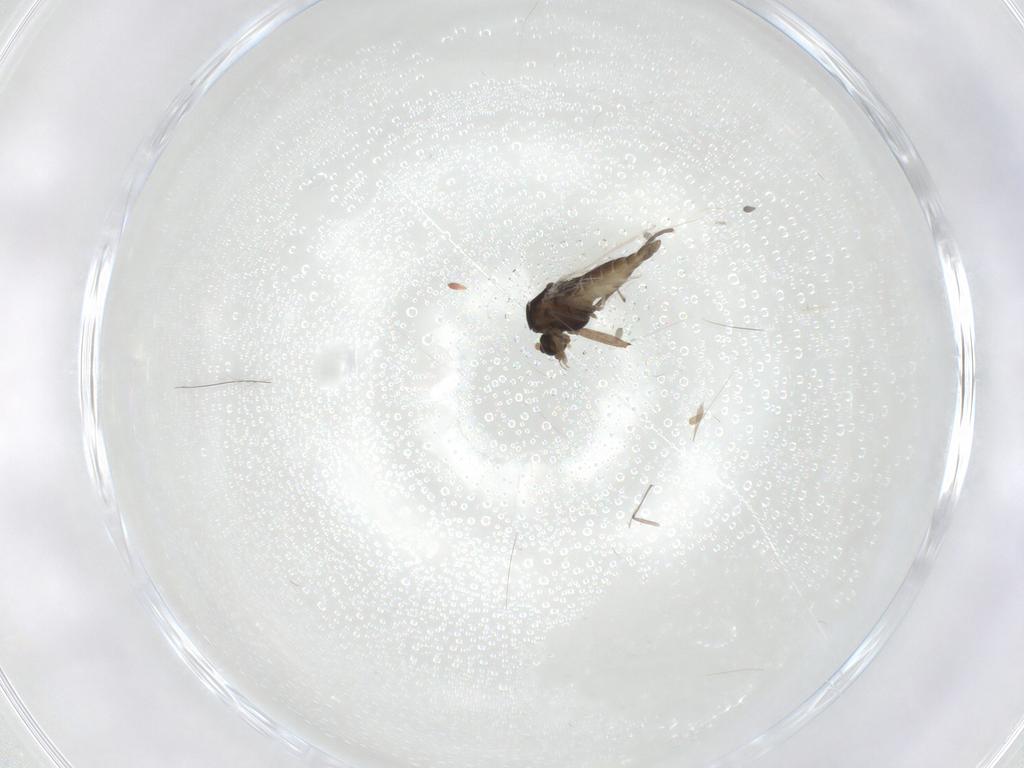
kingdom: Animalia
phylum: Arthropoda
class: Insecta
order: Diptera
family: Chironomidae
